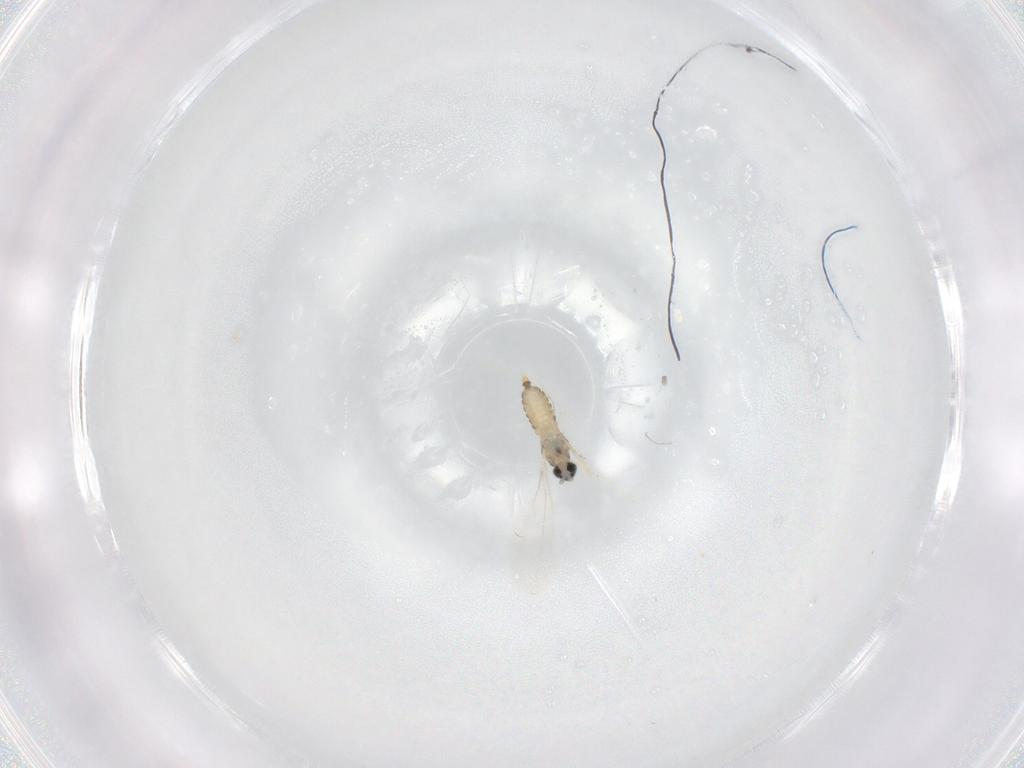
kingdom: Animalia
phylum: Arthropoda
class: Insecta
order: Diptera
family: Cecidomyiidae
